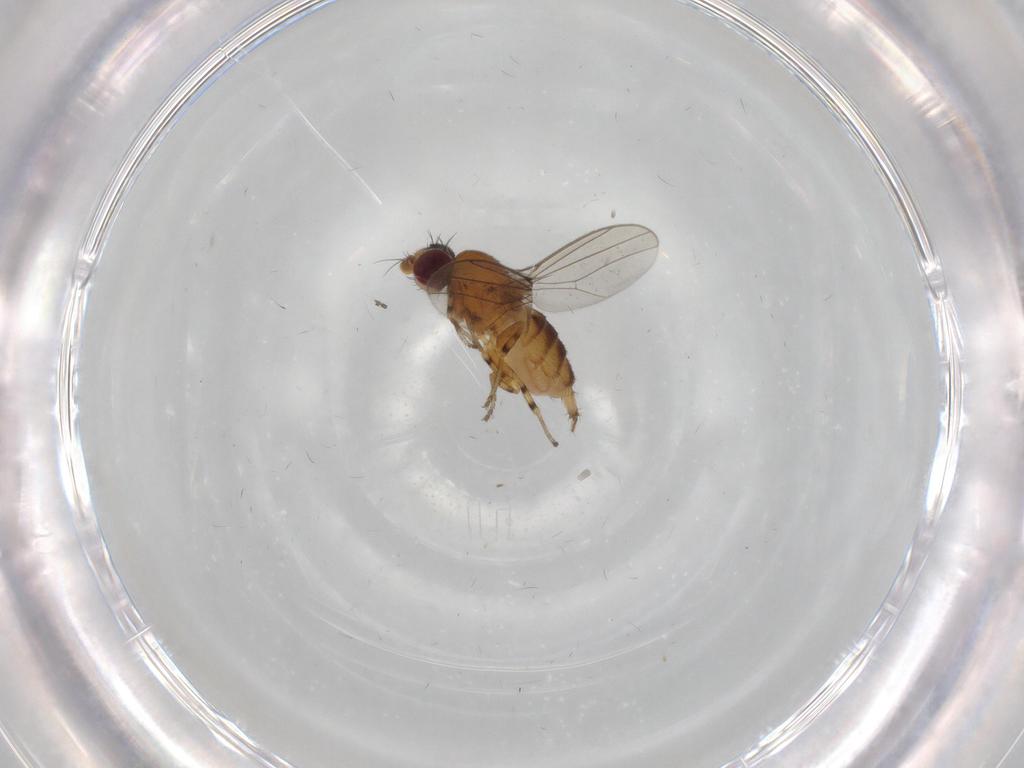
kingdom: Animalia
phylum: Arthropoda
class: Insecta
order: Diptera
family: Chloropidae
